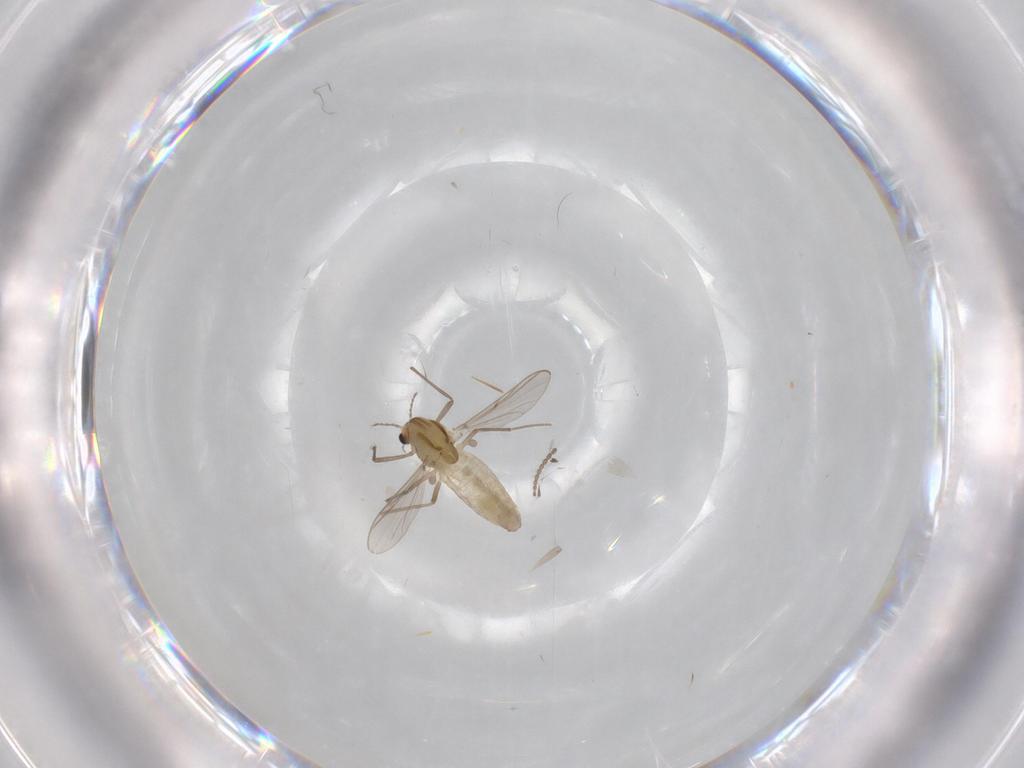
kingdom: Animalia
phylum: Arthropoda
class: Insecta
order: Diptera
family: Chironomidae
